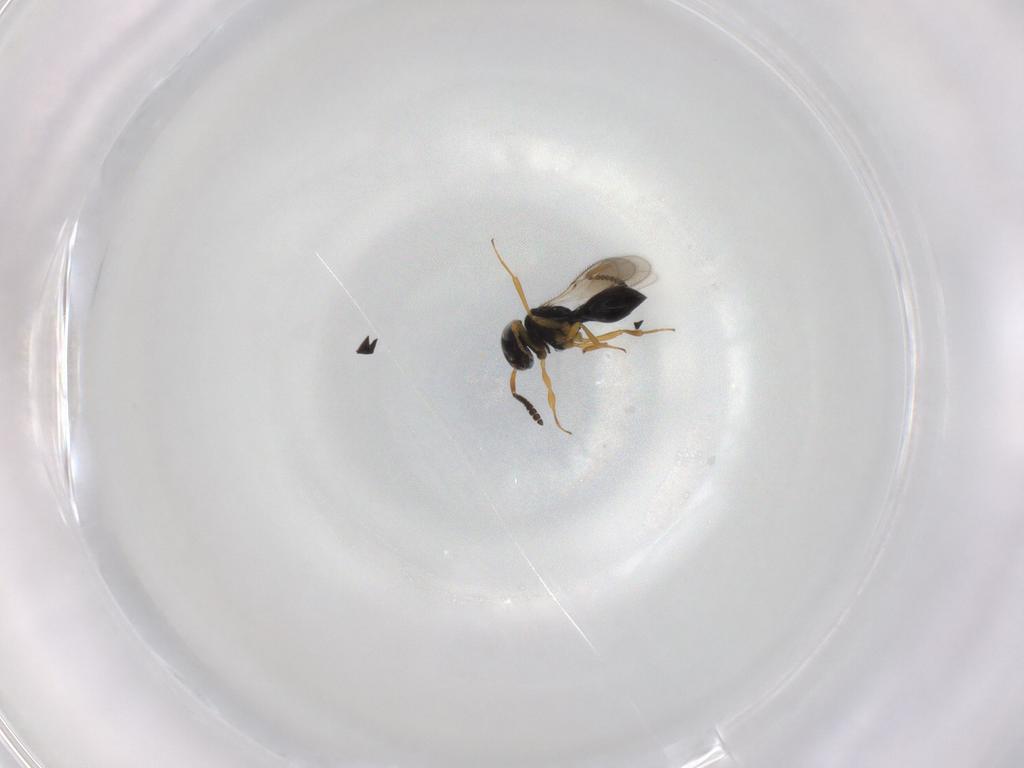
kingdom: Animalia
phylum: Arthropoda
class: Insecta
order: Hymenoptera
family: Scelionidae
